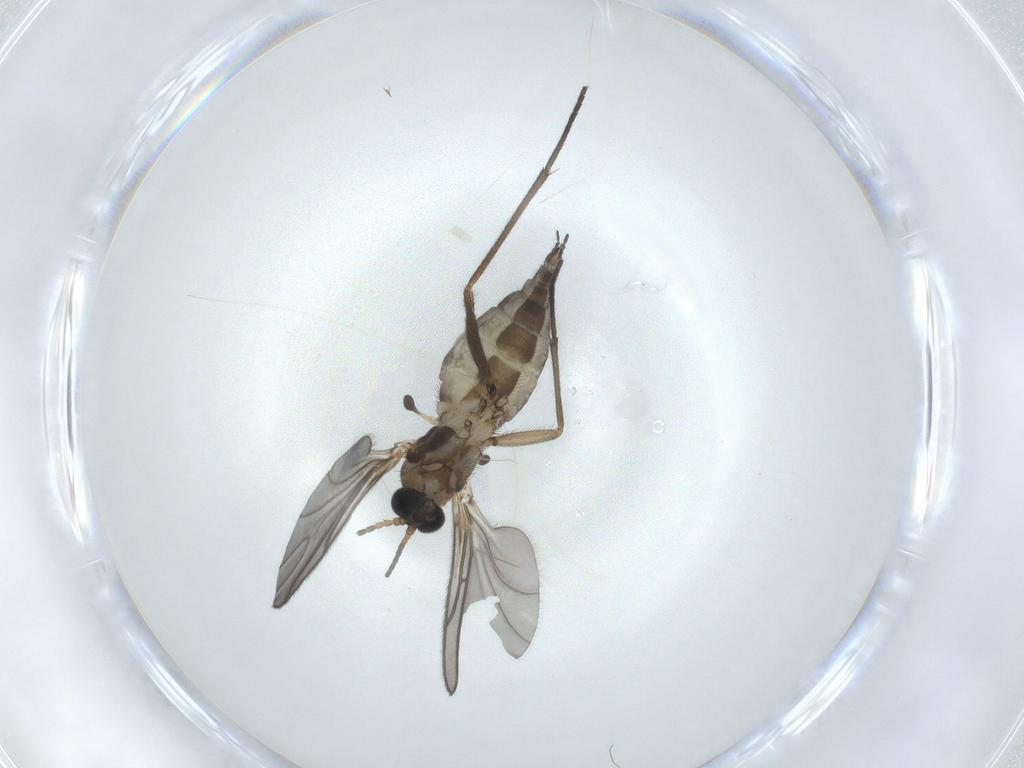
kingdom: Animalia
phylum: Arthropoda
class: Insecta
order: Diptera
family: Sciaridae
